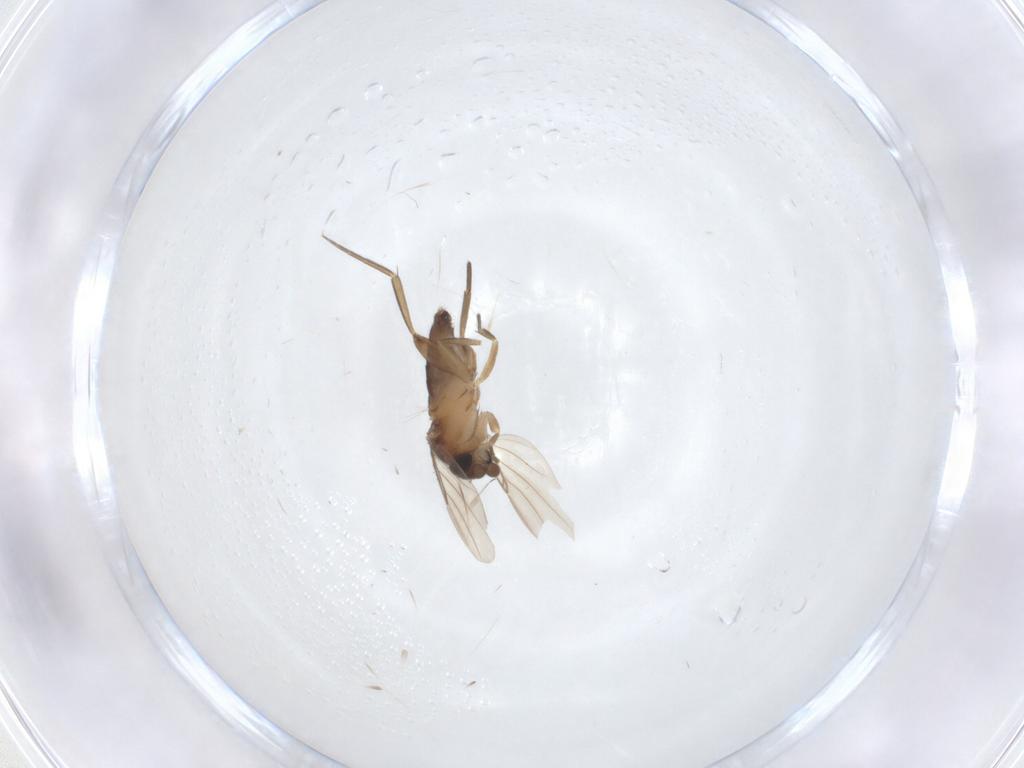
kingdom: Animalia
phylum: Arthropoda
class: Insecta
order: Diptera
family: Phoridae
